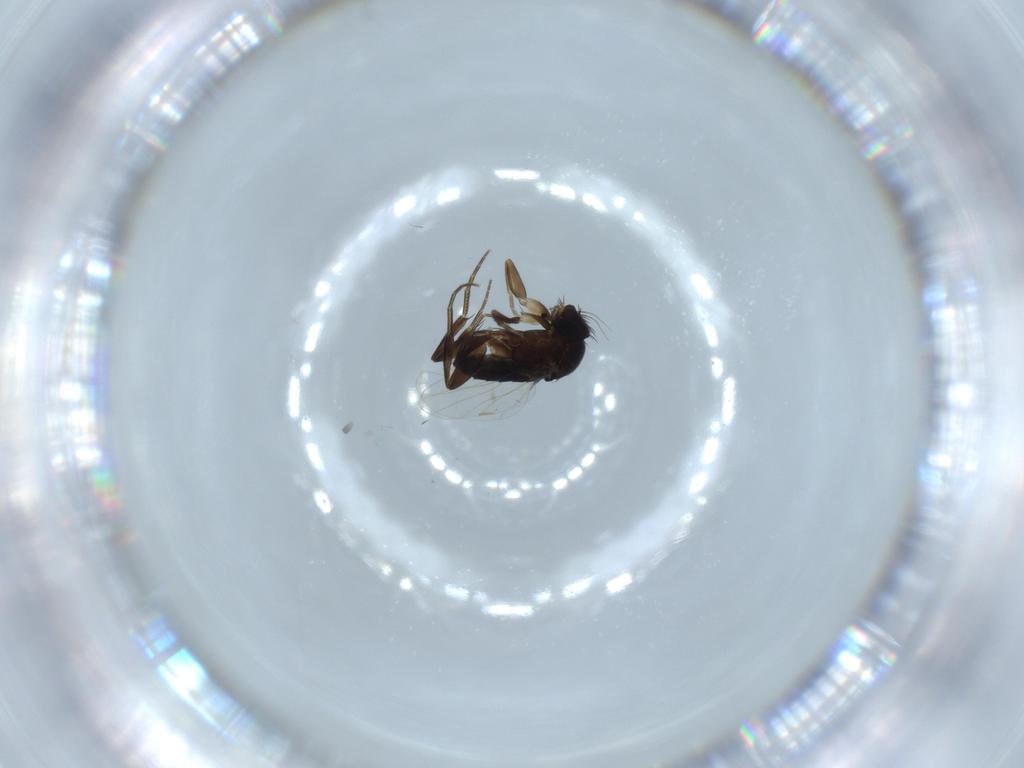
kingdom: Animalia
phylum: Arthropoda
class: Insecta
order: Diptera
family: Phoridae
